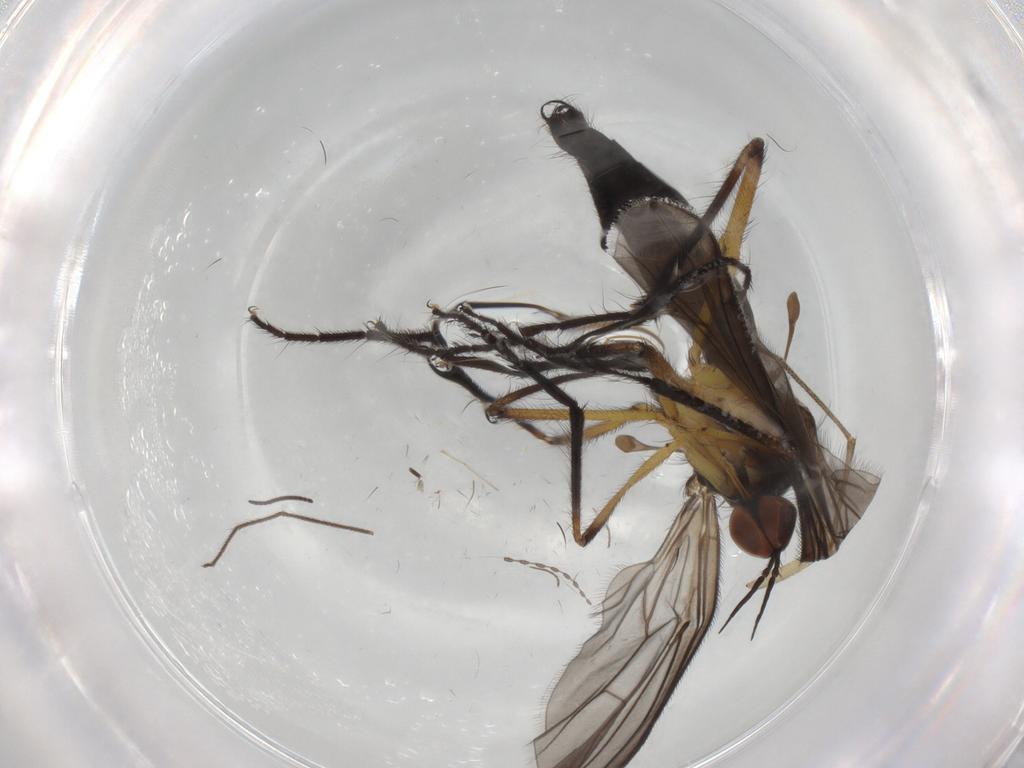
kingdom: Animalia
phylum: Arthropoda
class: Insecta
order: Diptera
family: Empididae
